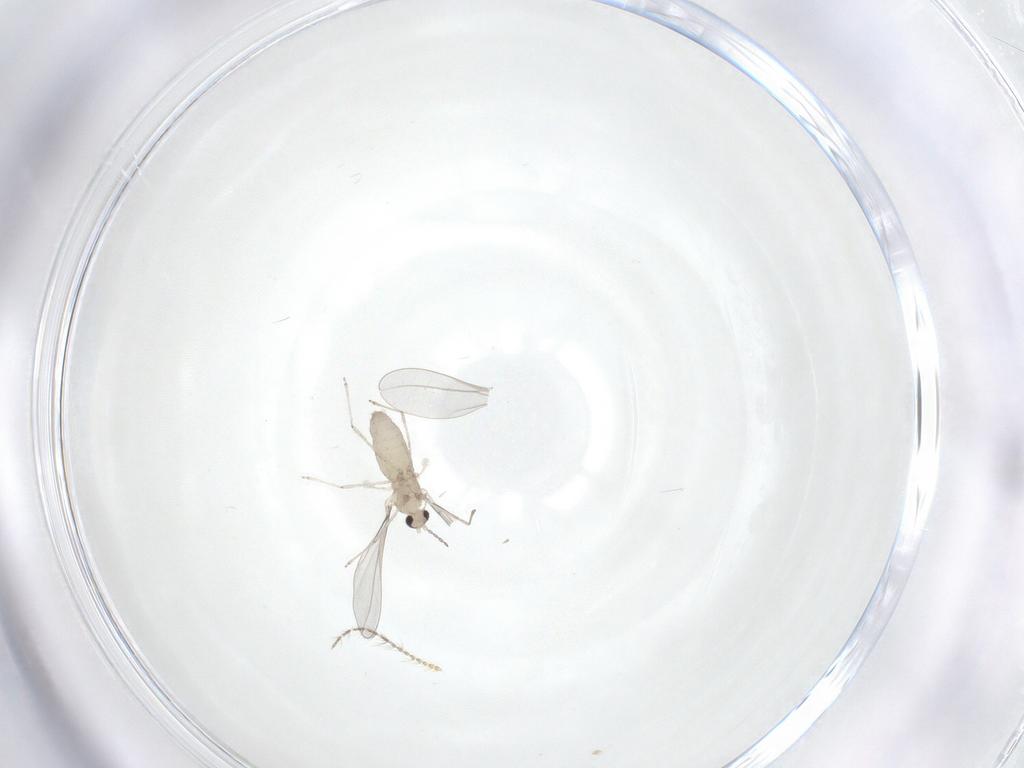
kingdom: Animalia
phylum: Arthropoda
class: Insecta
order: Diptera
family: Cecidomyiidae
